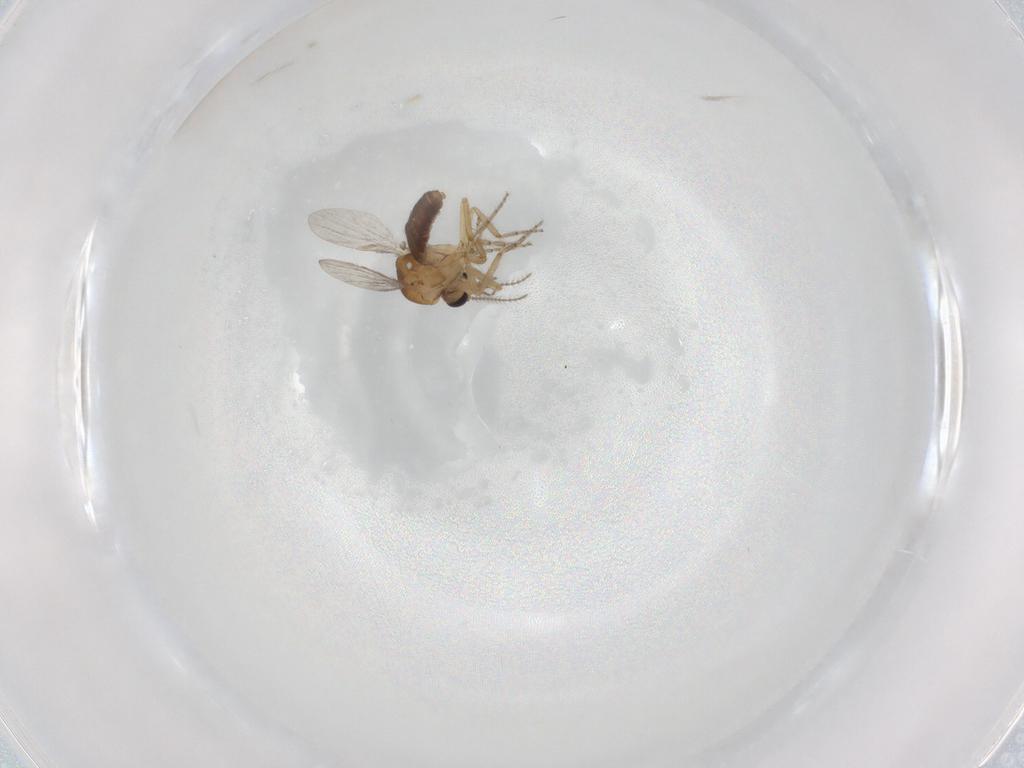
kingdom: Animalia
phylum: Arthropoda
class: Insecta
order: Diptera
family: Ceratopogonidae
